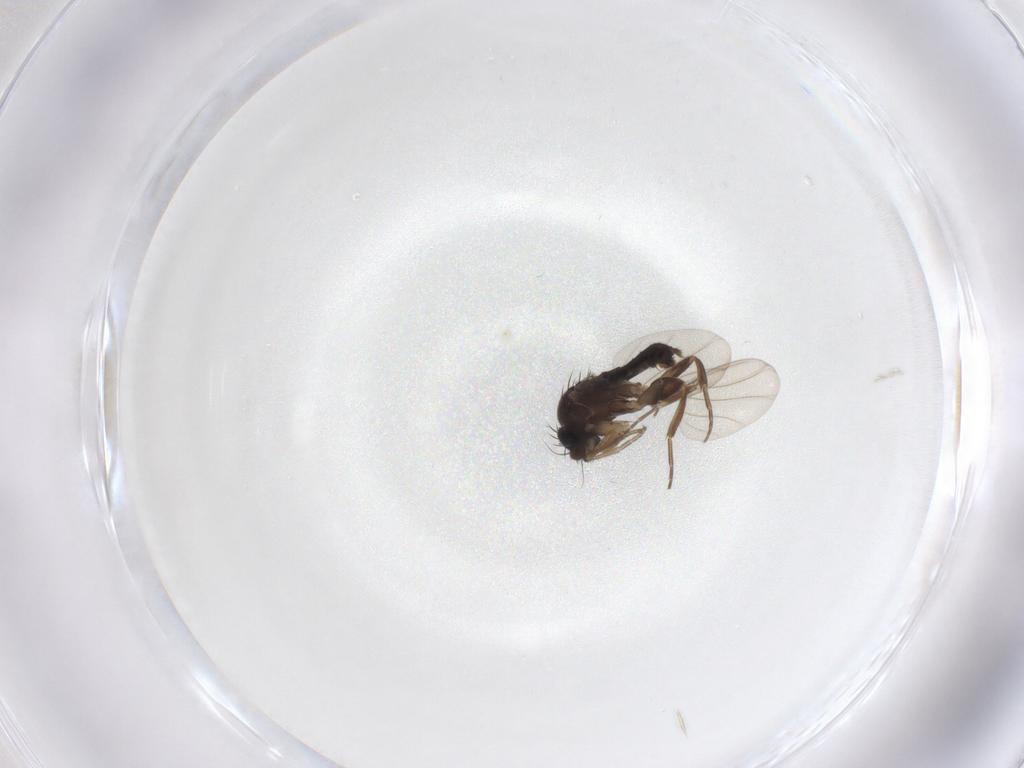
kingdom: Animalia
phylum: Arthropoda
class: Insecta
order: Diptera
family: Phoridae
